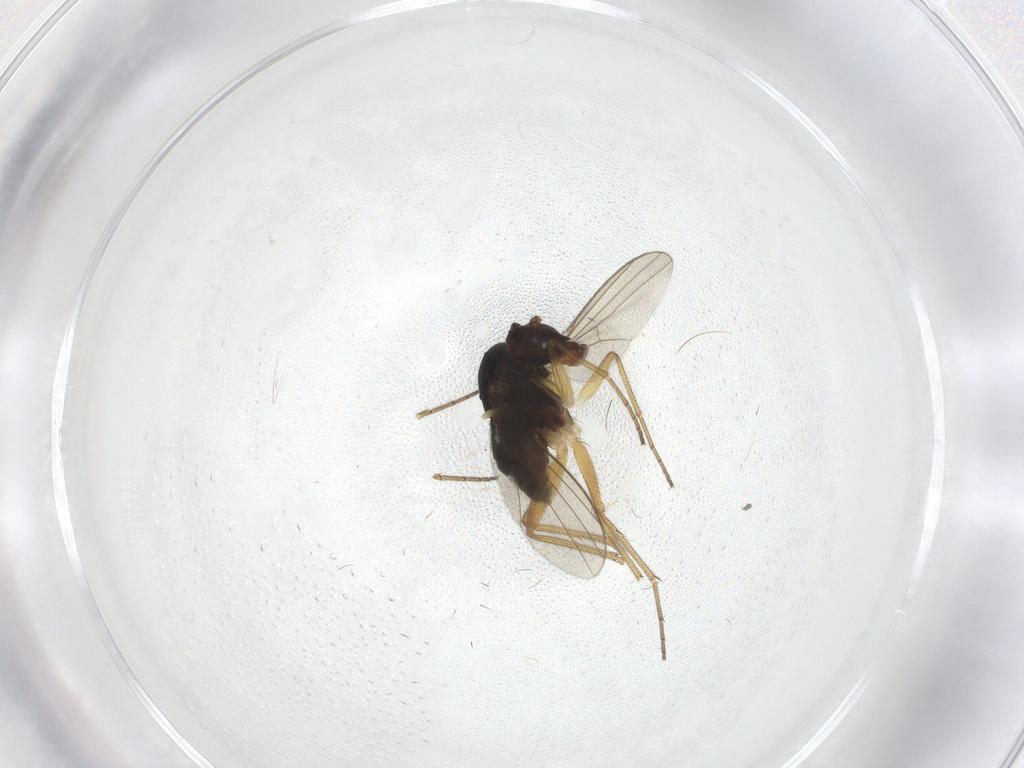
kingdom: Animalia
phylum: Arthropoda
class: Insecta
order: Diptera
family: Dolichopodidae
